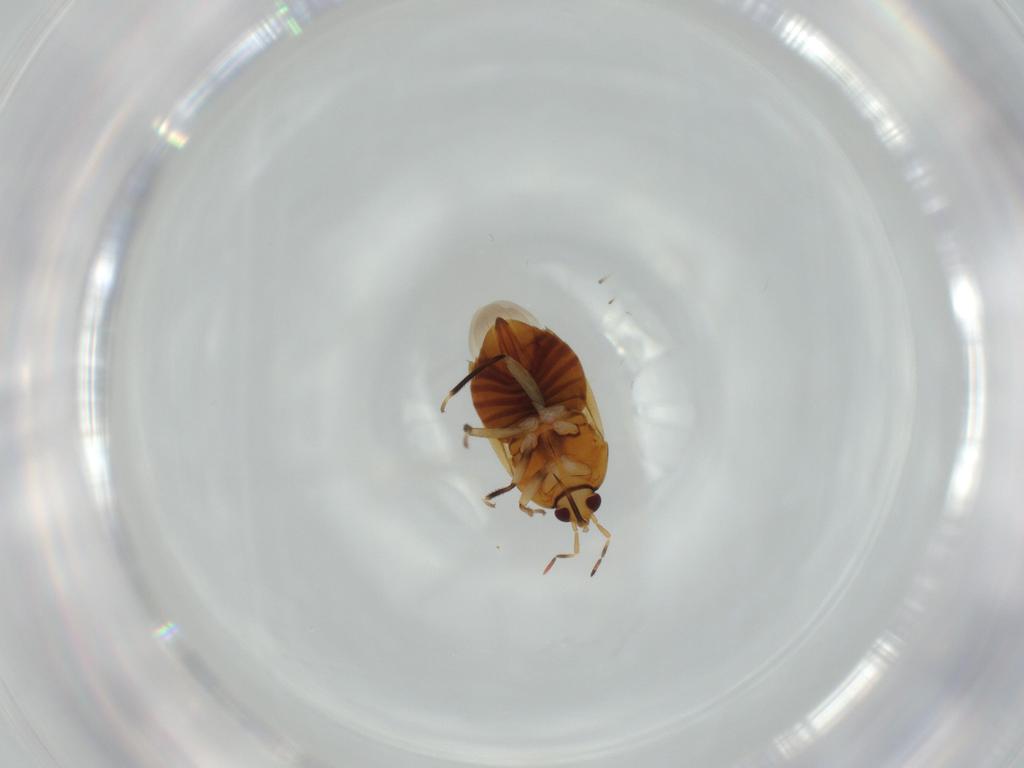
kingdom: Animalia
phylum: Arthropoda
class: Insecta
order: Hemiptera
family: Anthocoridae
